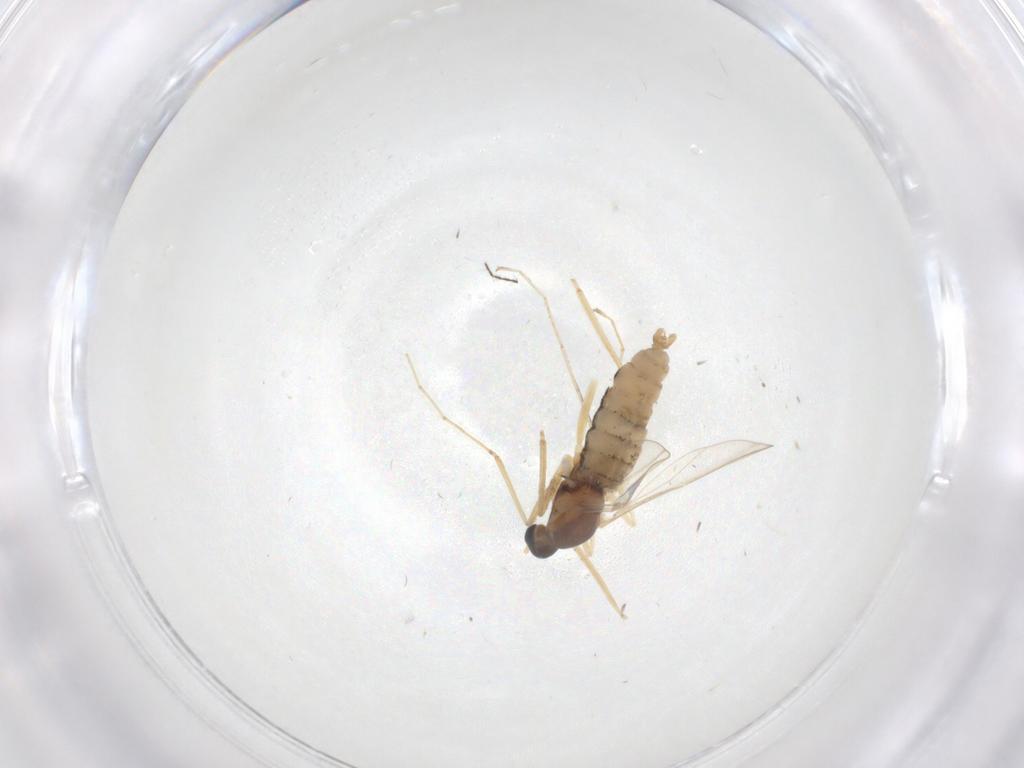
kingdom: Animalia
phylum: Arthropoda
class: Insecta
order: Diptera
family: Cecidomyiidae
